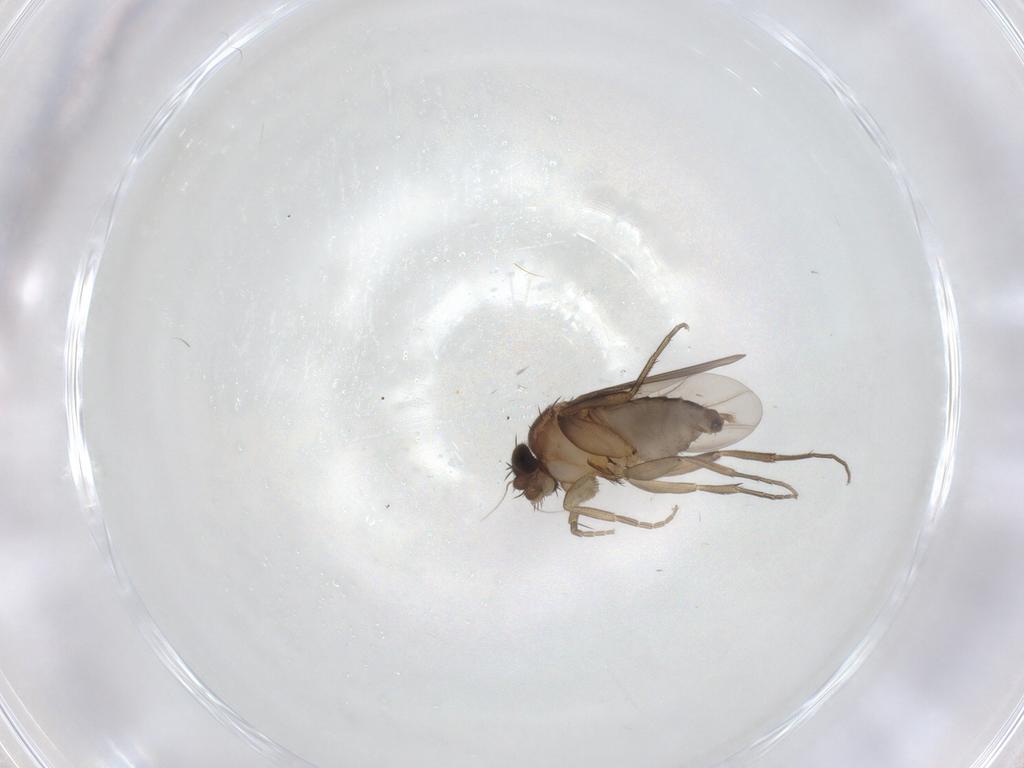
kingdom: Animalia
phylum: Arthropoda
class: Insecta
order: Diptera
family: Phoridae
